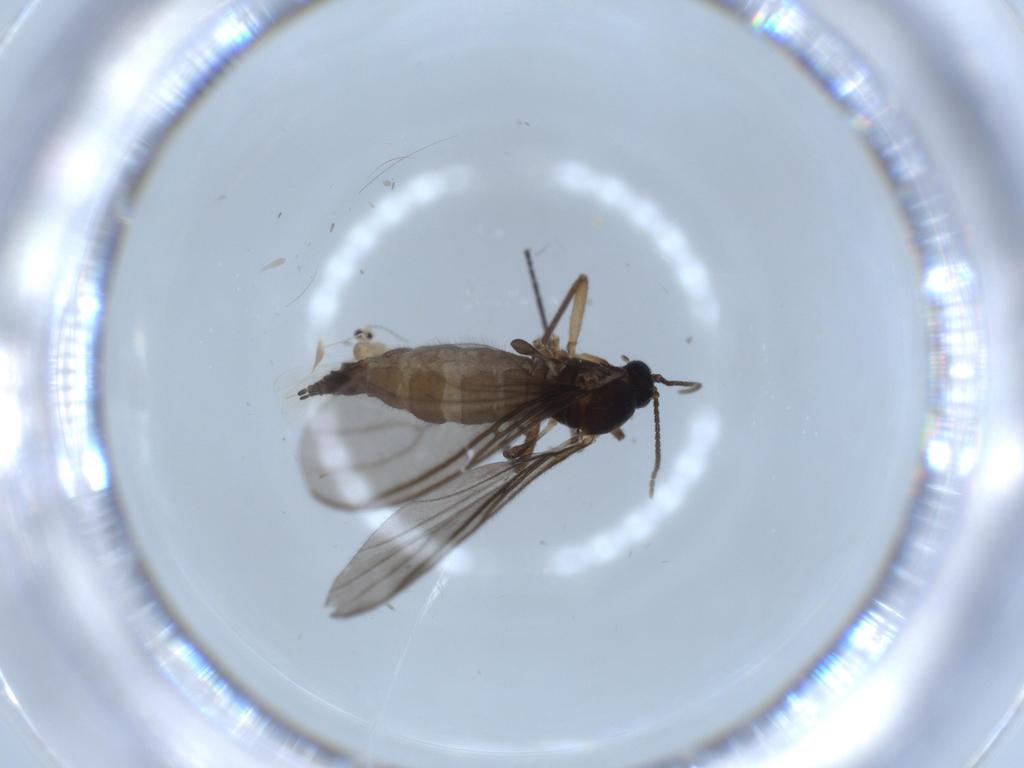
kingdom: Animalia
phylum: Arthropoda
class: Insecta
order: Diptera
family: Cecidomyiidae
